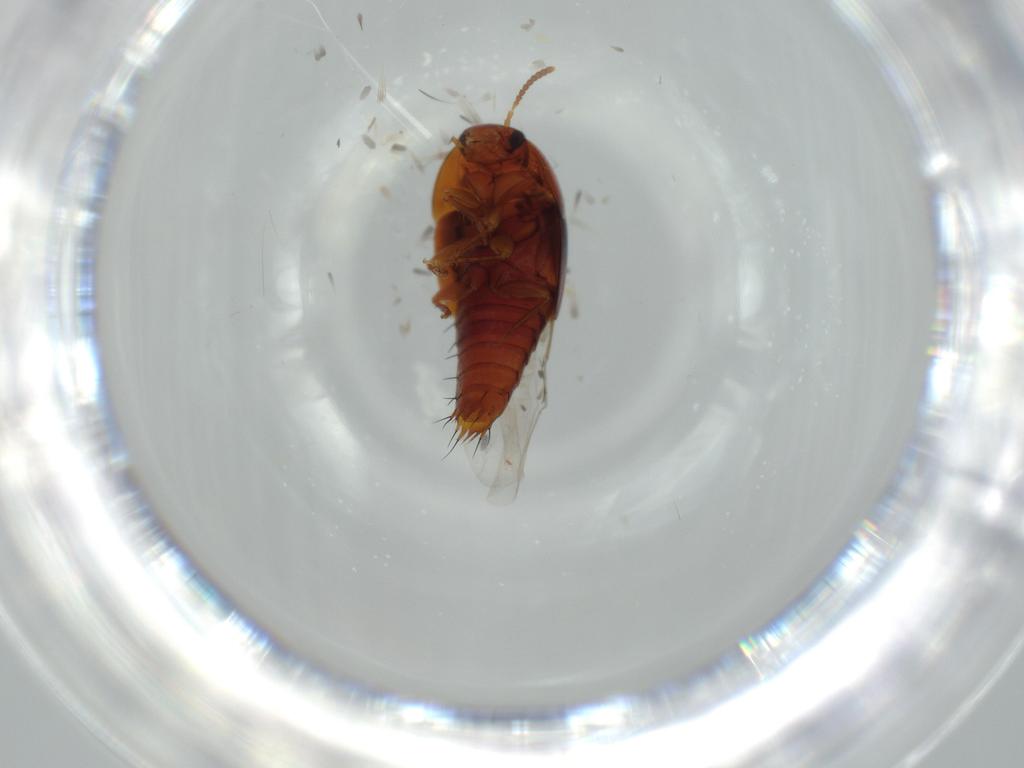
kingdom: Animalia
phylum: Arthropoda
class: Insecta
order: Coleoptera
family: Staphylinidae
